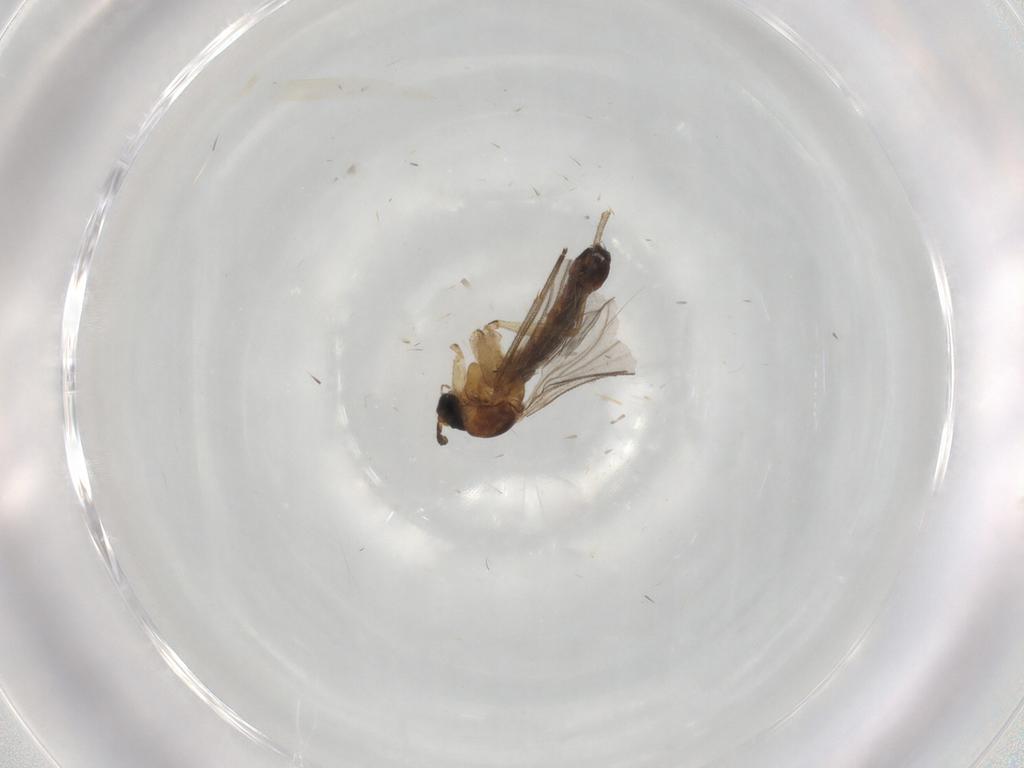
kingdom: Animalia
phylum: Arthropoda
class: Insecta
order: Diptera
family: Sciaridae
